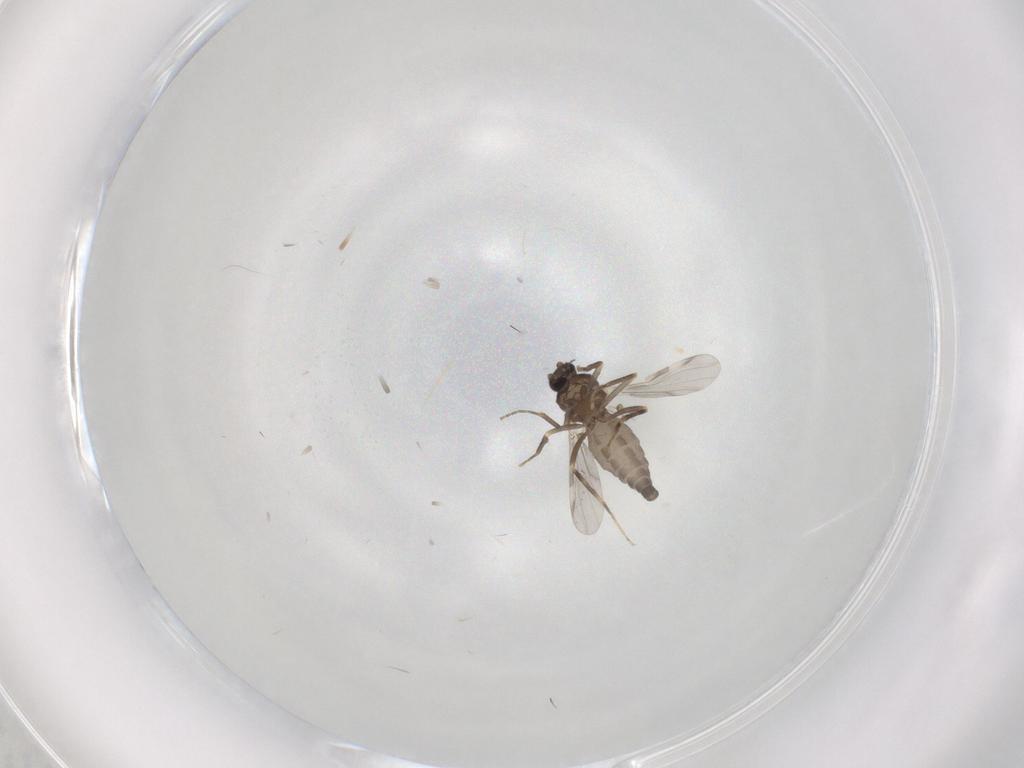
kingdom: Animalia
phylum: Arthropoda
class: Insecta
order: Diptera
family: Ceratopogonidae
